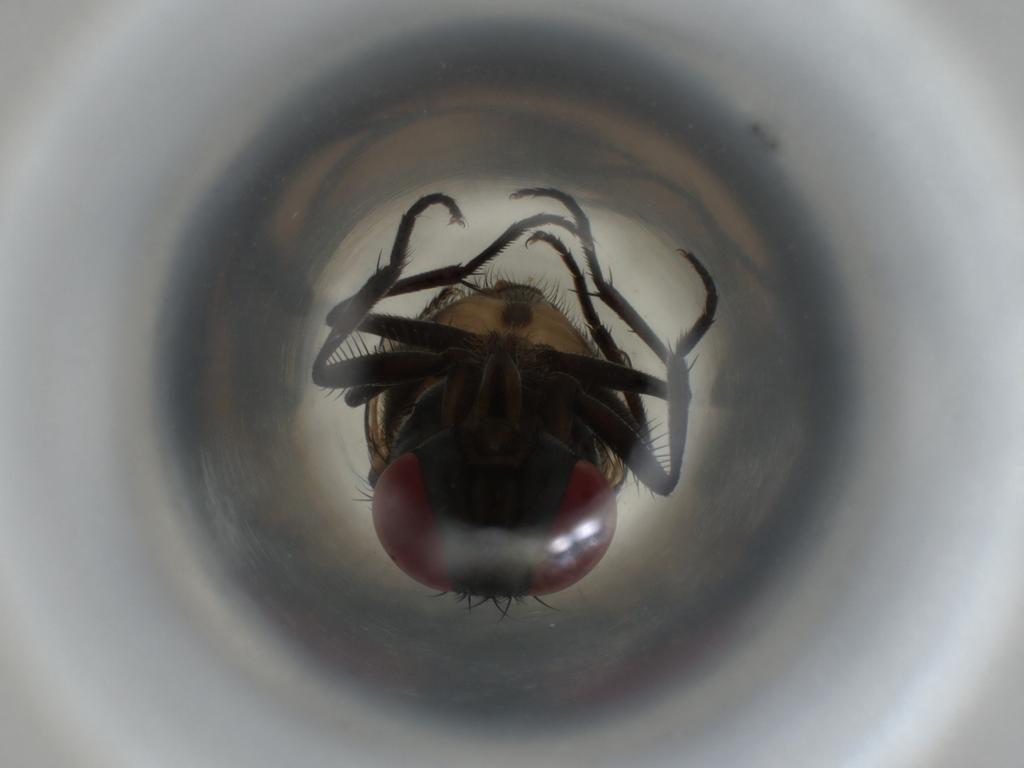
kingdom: Animalia
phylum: Arthropoda
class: Insecta
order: Diptera
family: Muscidae
